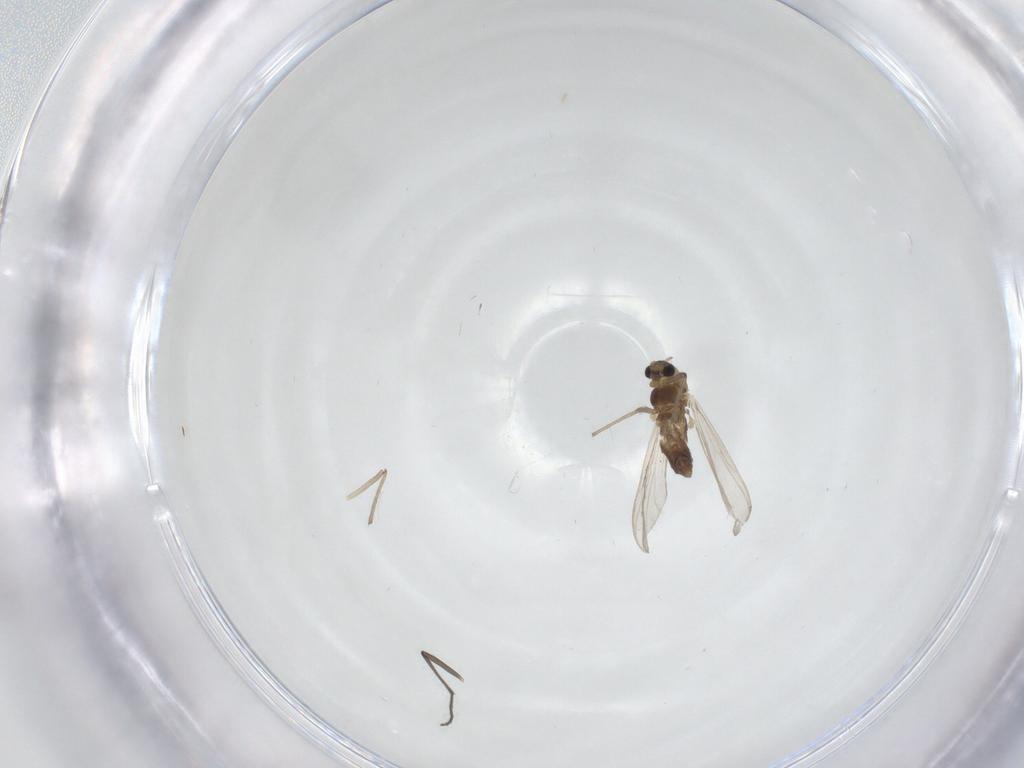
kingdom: Animalia
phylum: Arthropoda
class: Insecta
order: Diptera
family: Chironomidae
